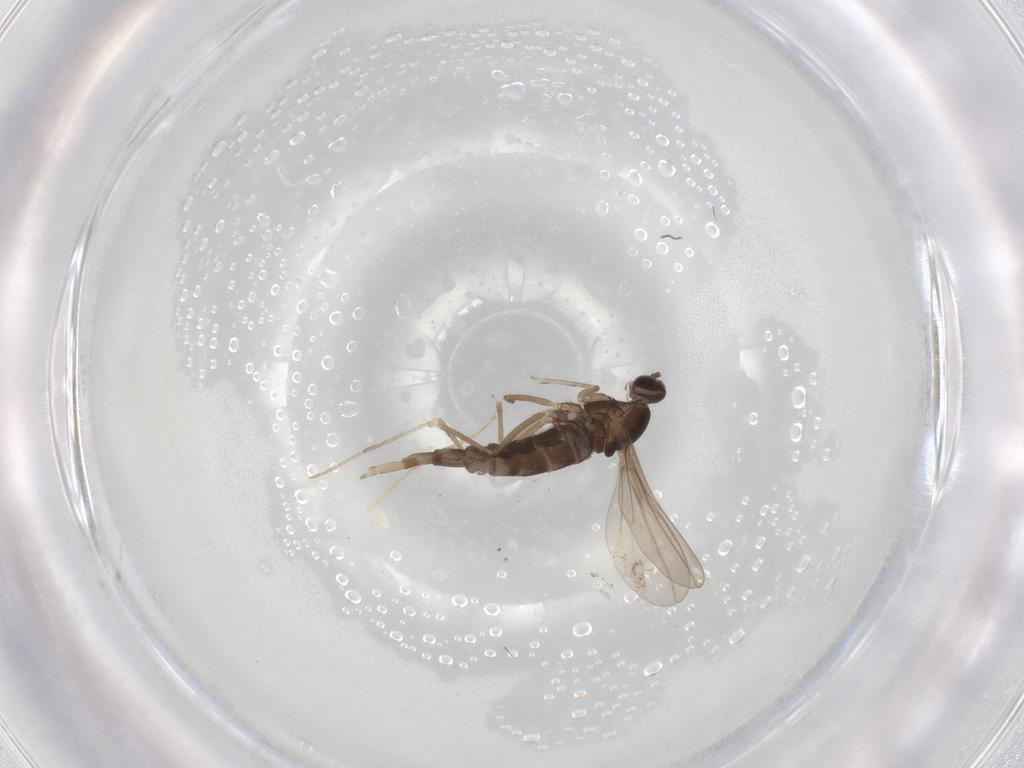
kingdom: Animalia
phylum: Arthropoda
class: Insecta
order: Diptera
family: Cecidomyiidae
